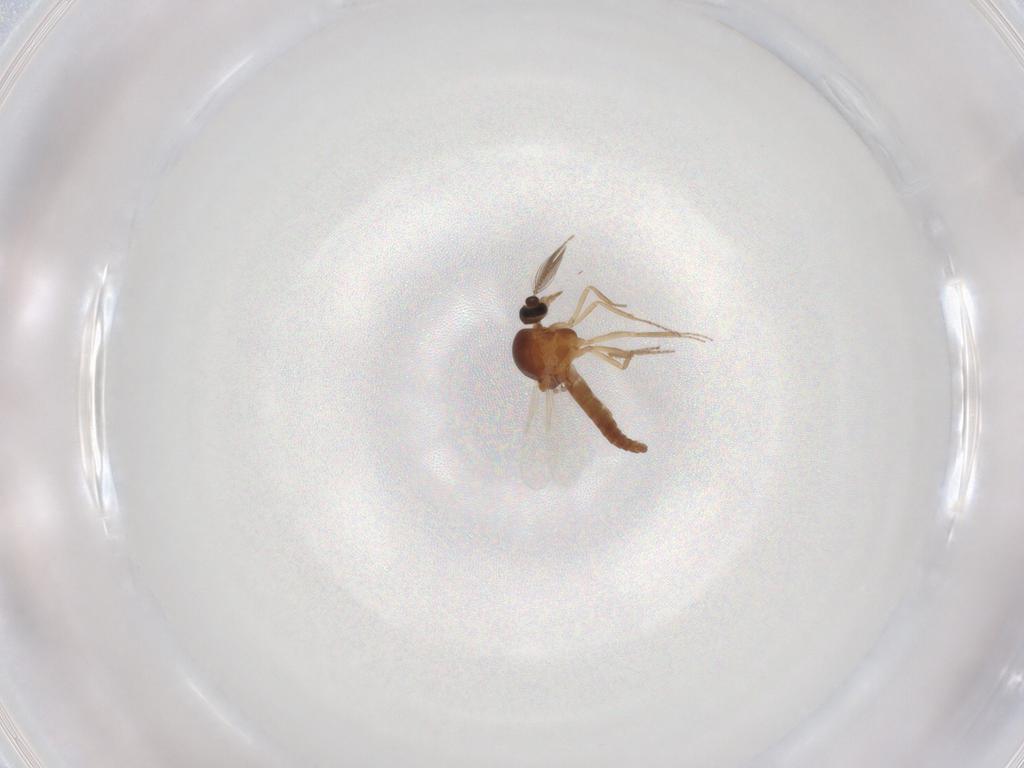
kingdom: Animalia
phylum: Arthropoda
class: Insecta
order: Diptera
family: Ceratopogonidae
